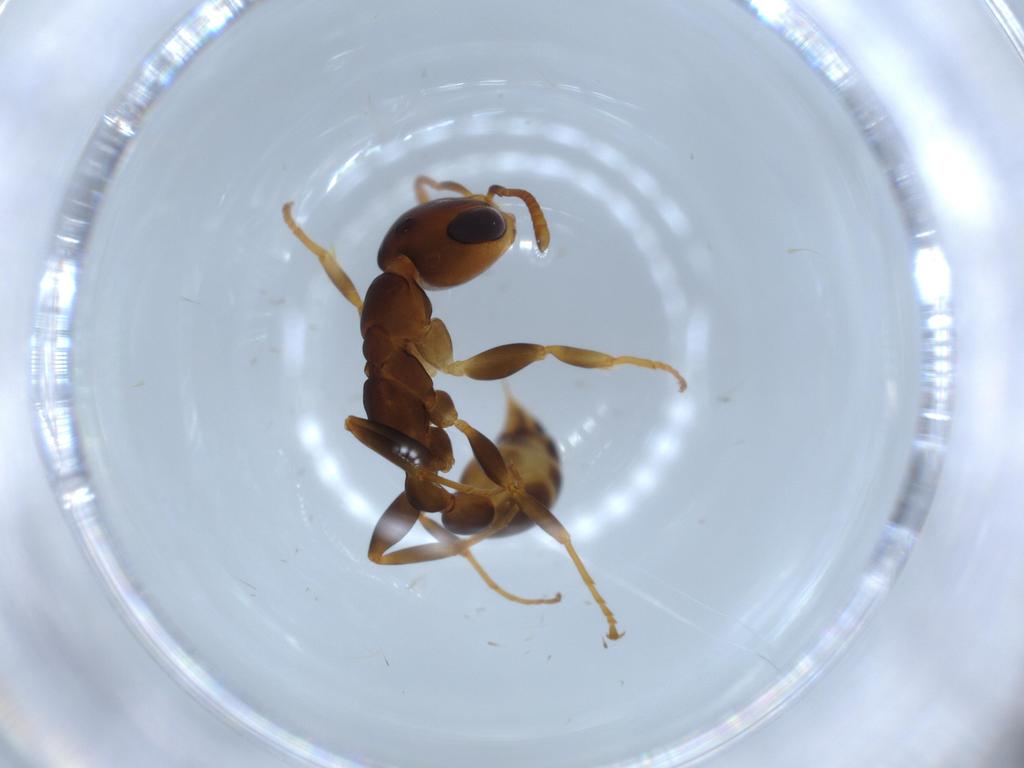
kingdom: Animalia
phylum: Arthropoda
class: Insecta
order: Hymenoptera
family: Formicidae
